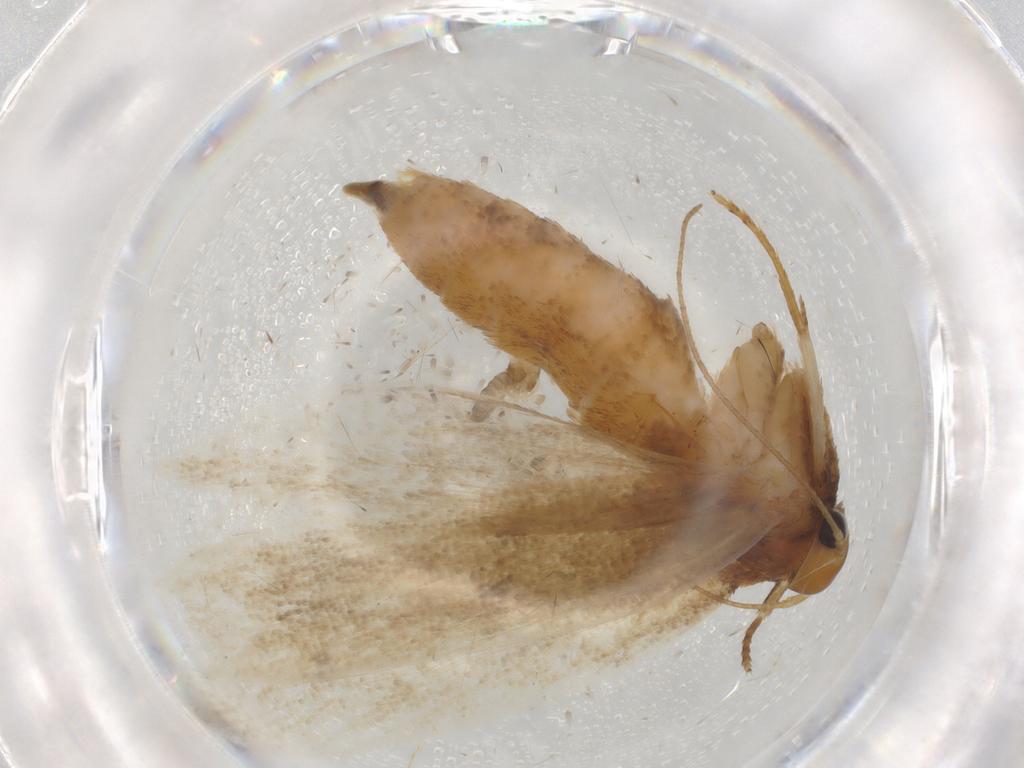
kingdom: Animalia
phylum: Arthropoda
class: Insecta
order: Lepidoptera
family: Gelechiidae
